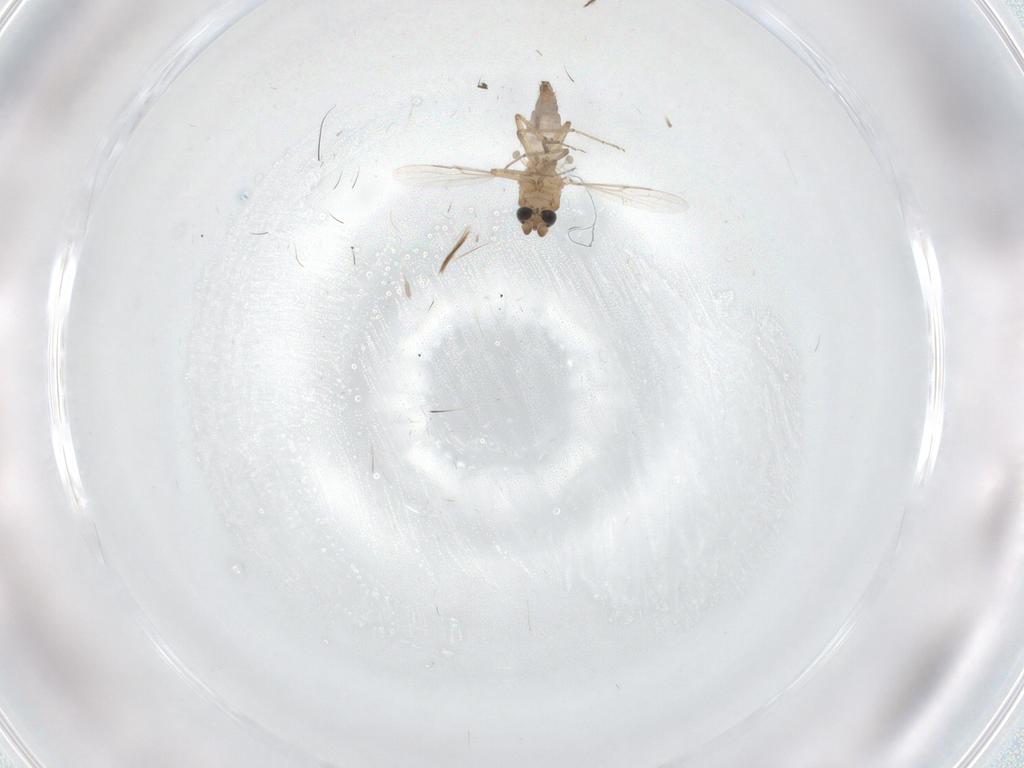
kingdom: Animalia
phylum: Arthropoda
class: Insecta
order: Diptera
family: Ceratopogonidae
